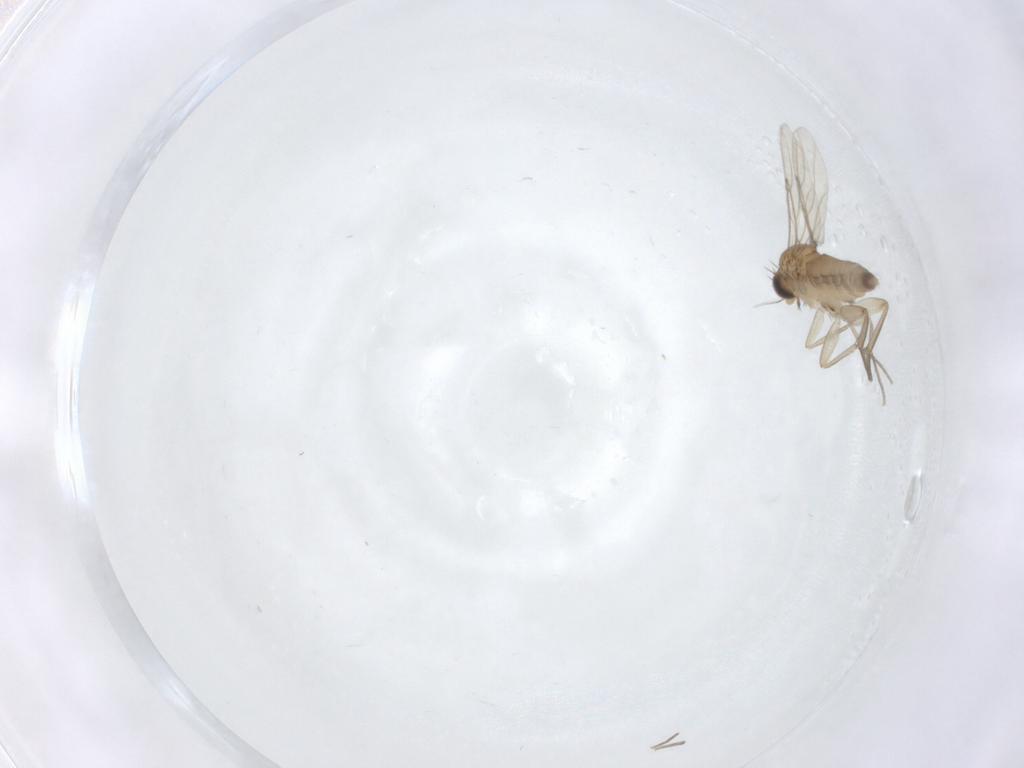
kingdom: Animalia
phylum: Arthropoda
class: Insecta
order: Diptera
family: Phoridae
